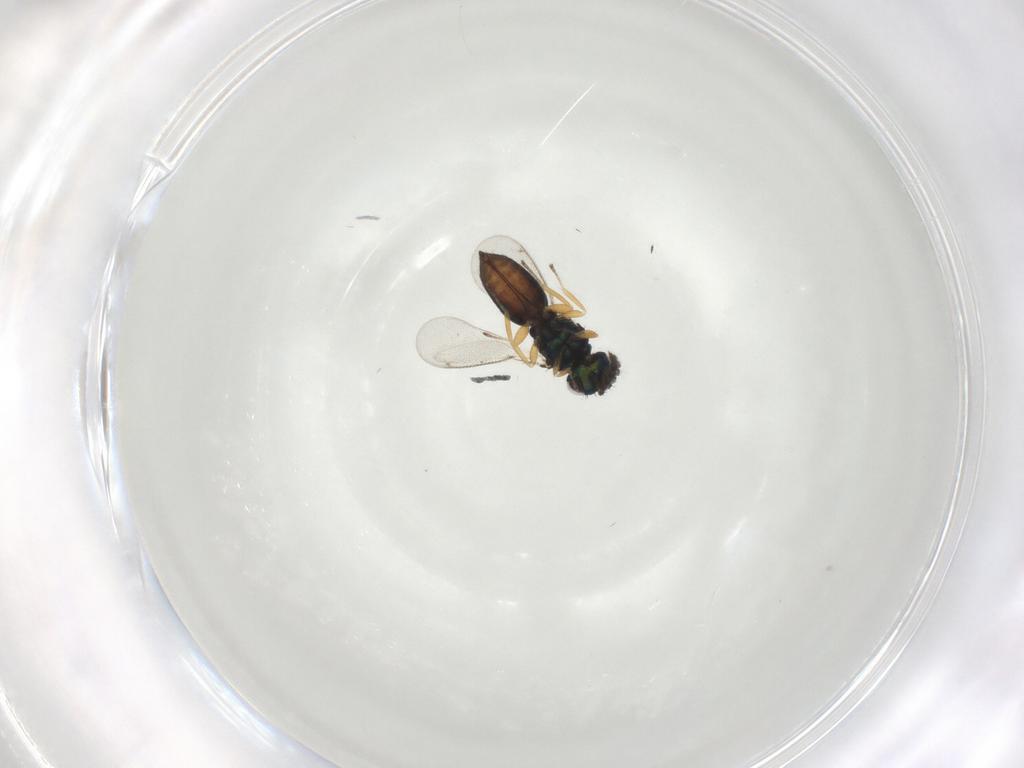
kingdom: Animalia
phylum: Arthropoda
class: Insecta
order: Hymenoptera
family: Eulophidae
